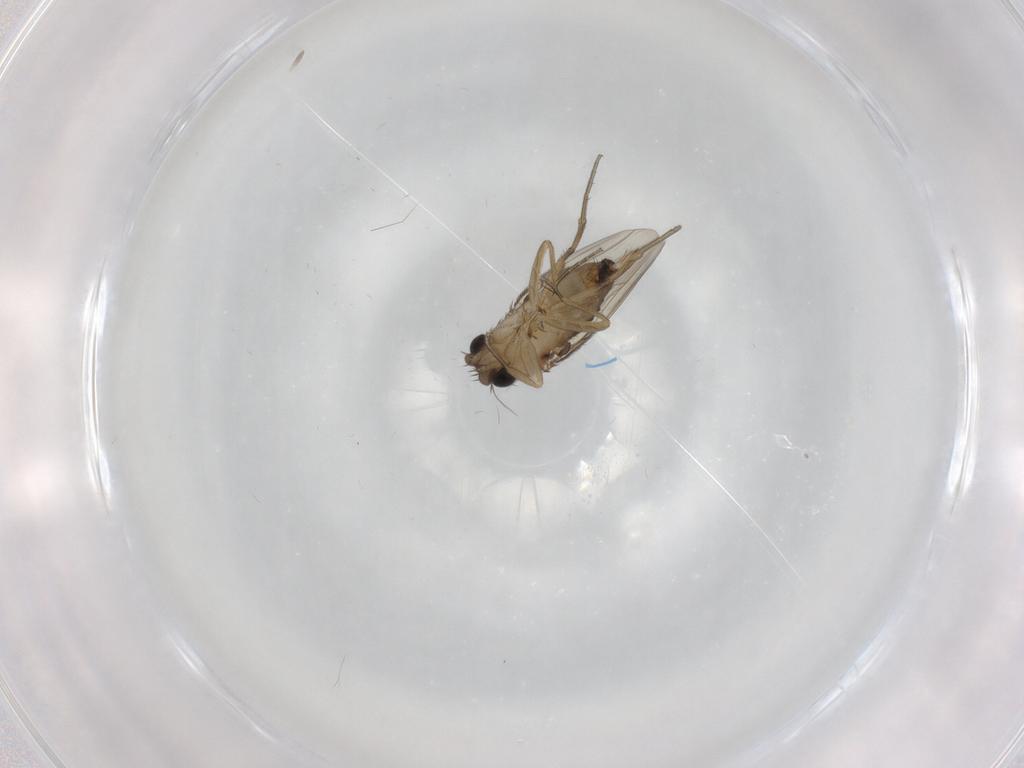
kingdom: Animalia
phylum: Arthropoda
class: Insecta
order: Diptera
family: Phoridae
